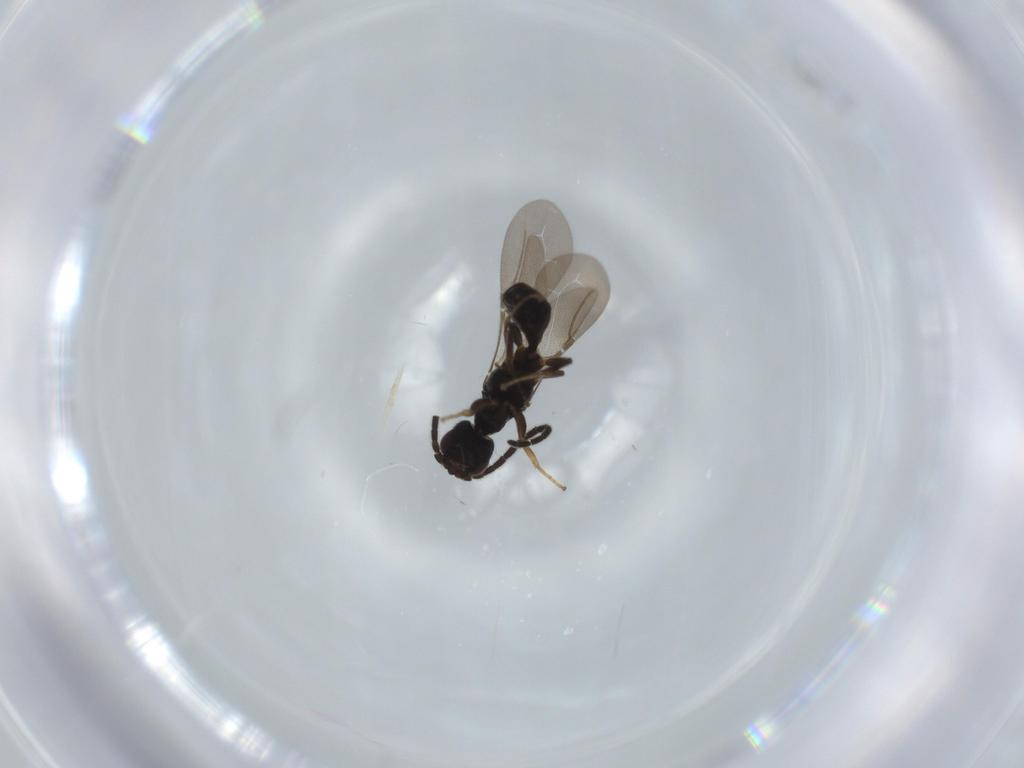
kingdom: Animalia
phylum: Arthropoda
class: Insecta
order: Hymenoptera
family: Bethylidae
